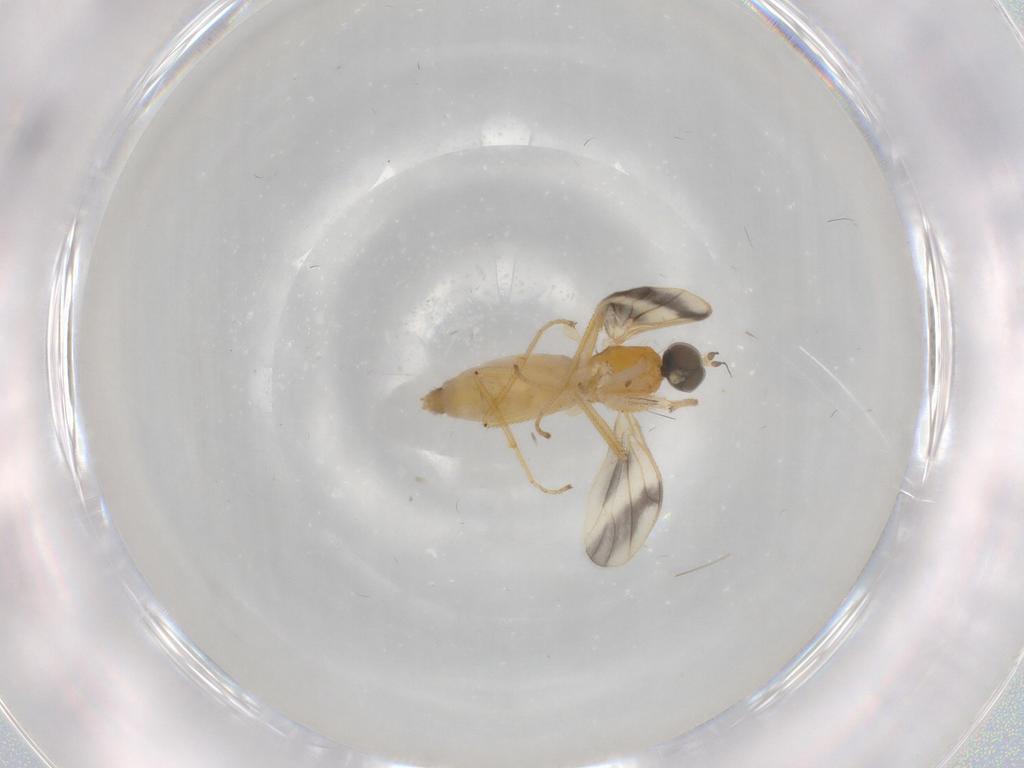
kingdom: Animalia
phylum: Arthropoda
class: Insecta
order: Diptera
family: Empididae
